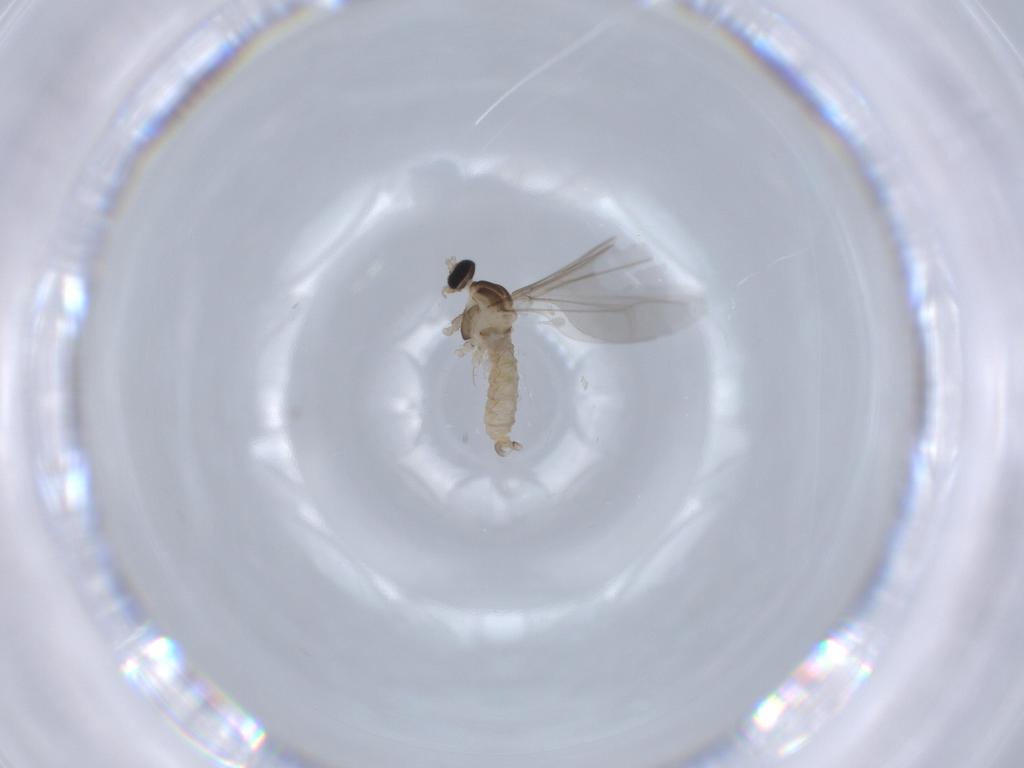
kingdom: Animalia
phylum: Arthropoda
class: Insecta
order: Diptera
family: Cecidomyiidae
